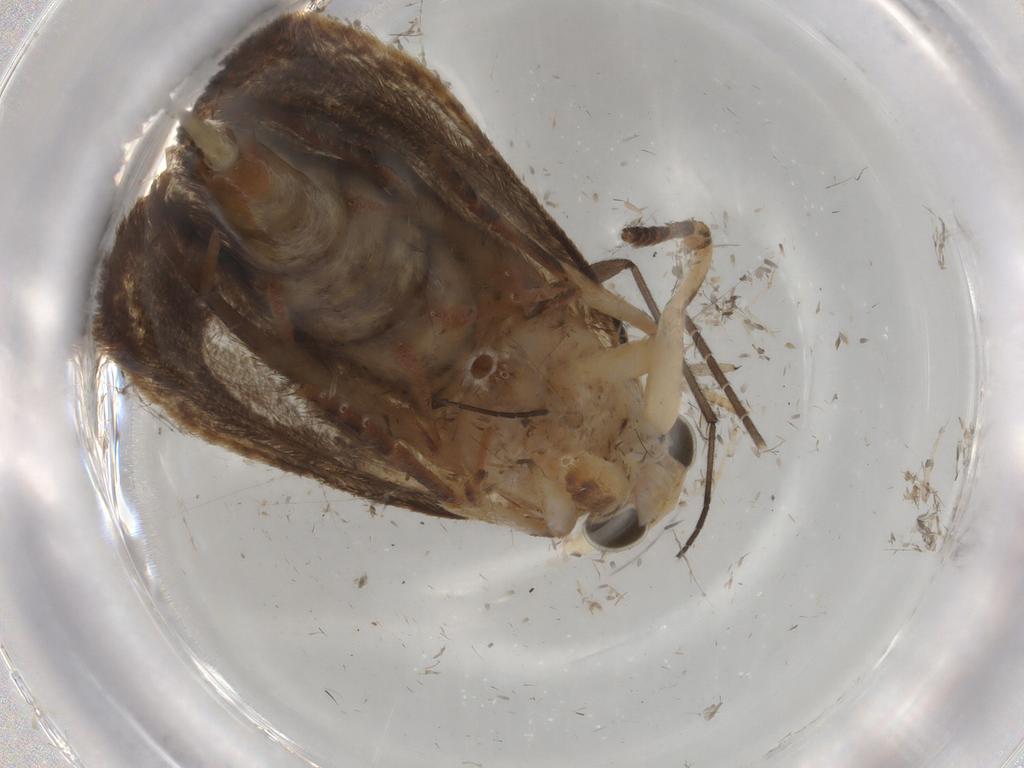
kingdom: Animalia
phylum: Arthropoda
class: Insecta
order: Lepidoptera
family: Tineidae
